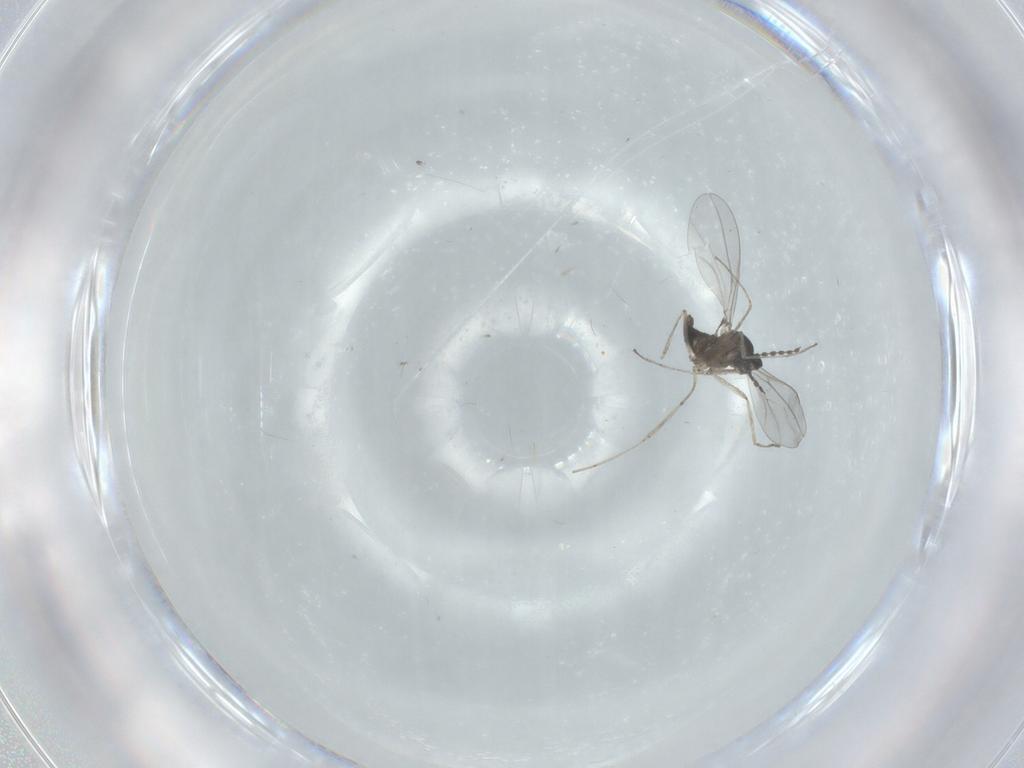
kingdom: Animalia
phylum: Arthropoda
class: Insecta
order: Diptera
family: Cecidomyiidae
